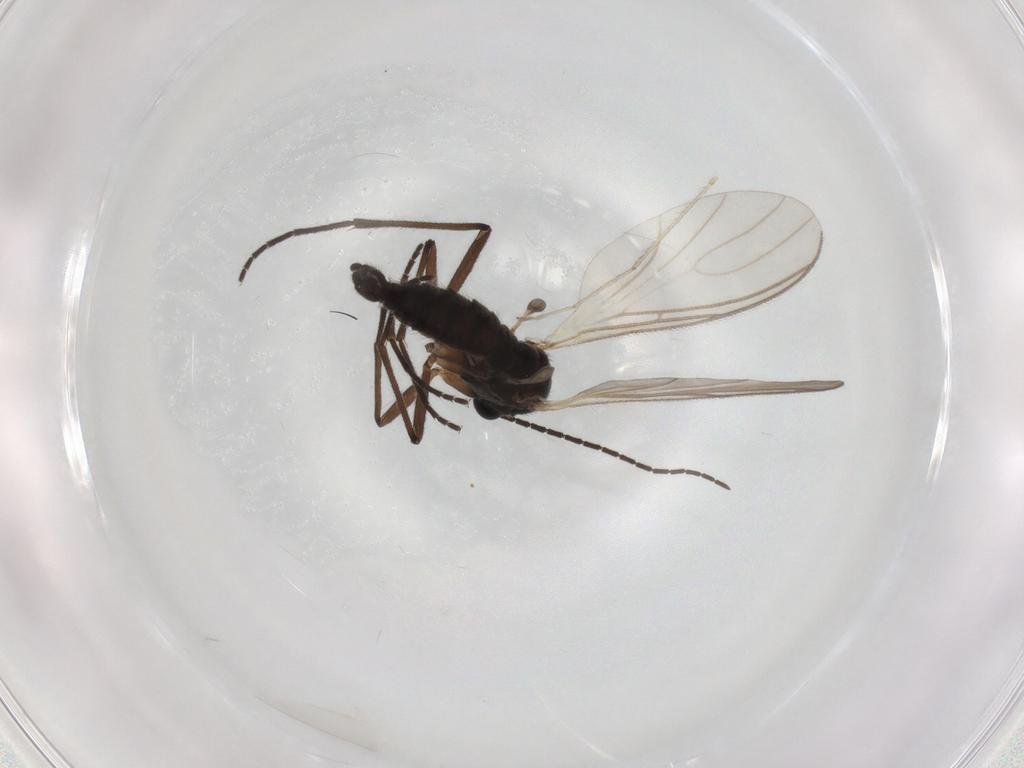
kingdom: Animalia
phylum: Arthropoda
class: Insecta
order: Diptera
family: Sciaridae
